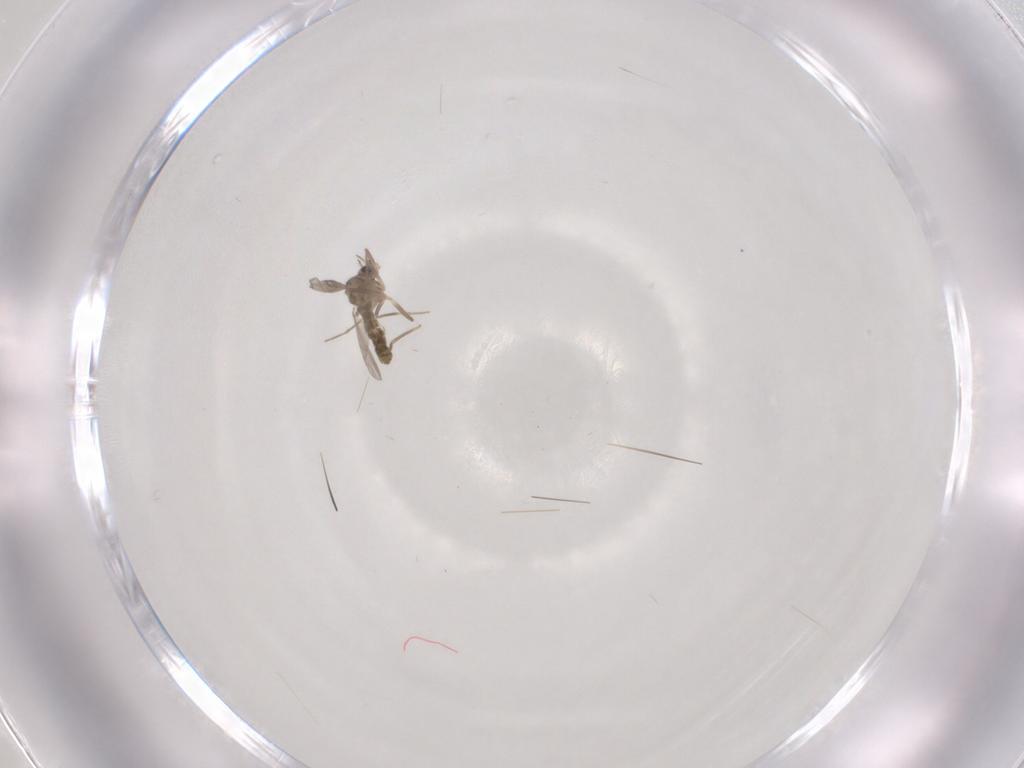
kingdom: Animalia
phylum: Arthropoda
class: Insecta
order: Diptera
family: Chironomidae
